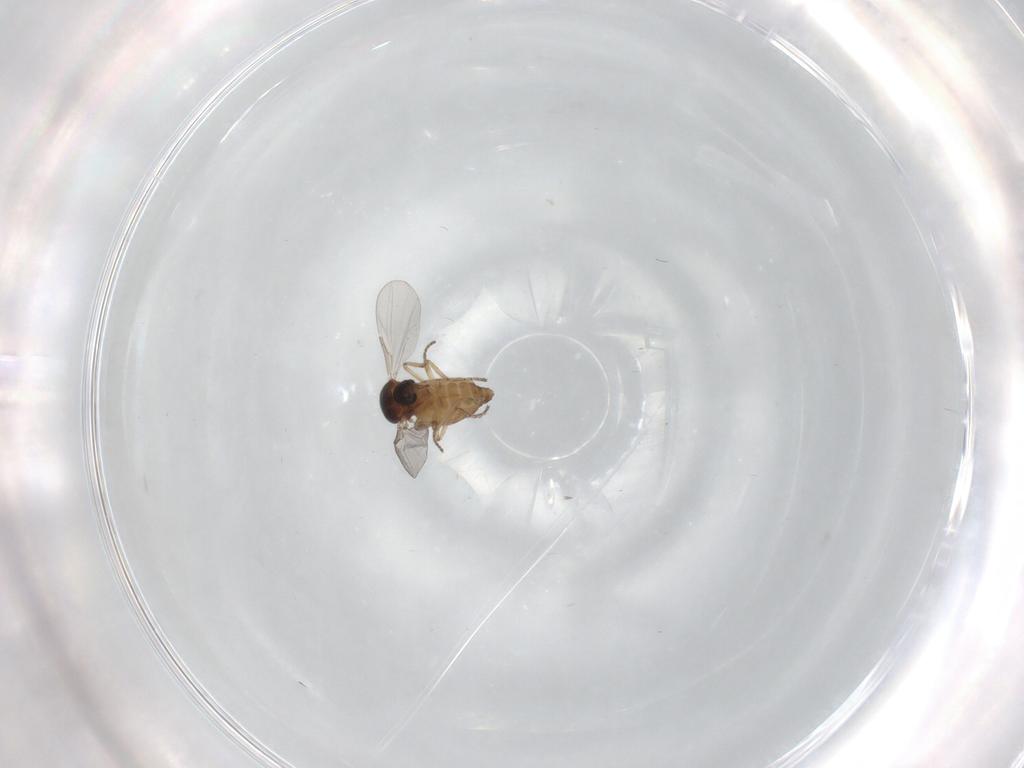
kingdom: Animalia
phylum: Arthropoda
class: Insecta
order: Diptera
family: Ceratopogonidae
